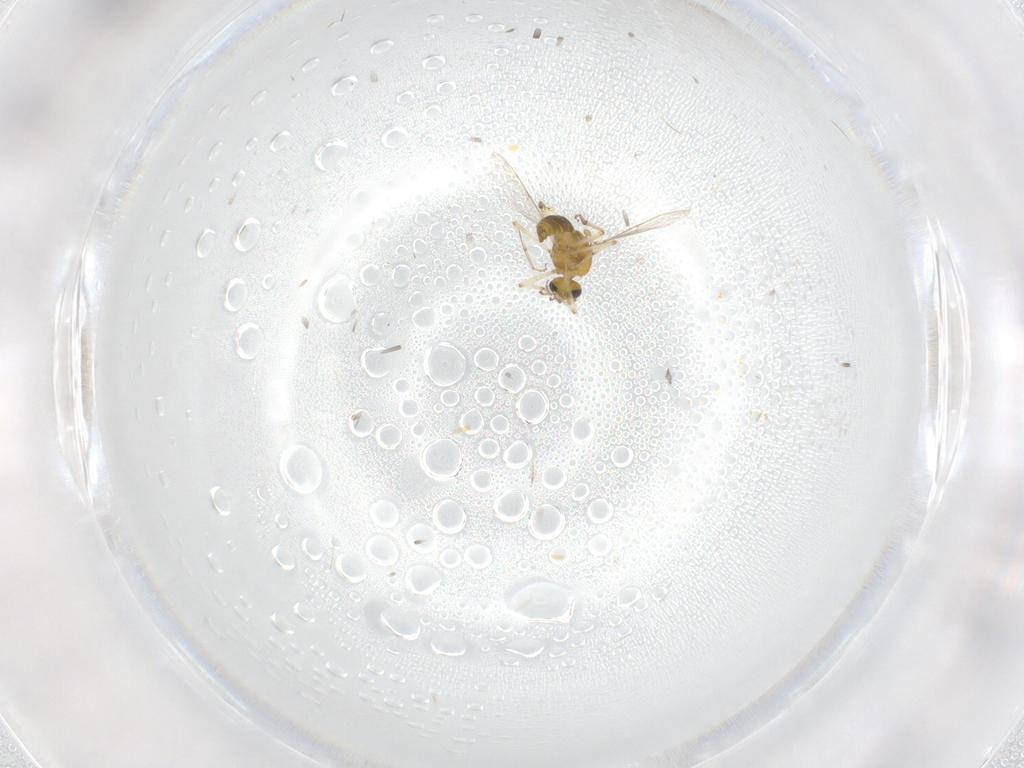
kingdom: Animalia
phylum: Arthropoda
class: Insecta
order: Diptera
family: Chironomidae
